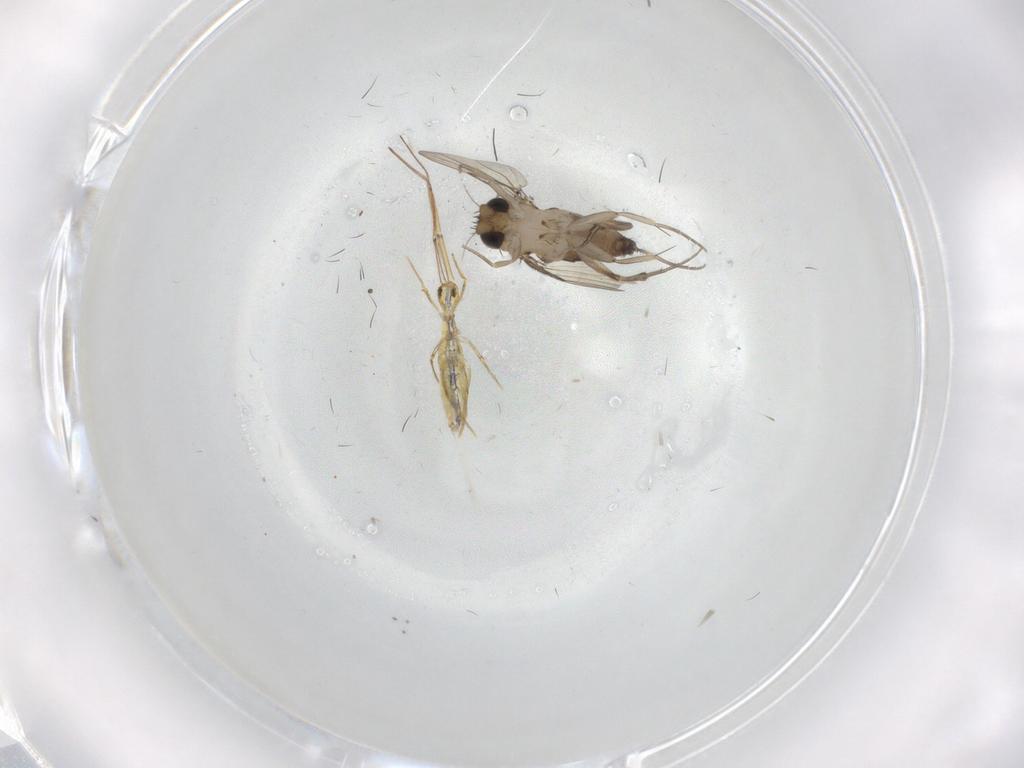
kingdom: Animalia
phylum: Arthropoda
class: Insecta
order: Diptera
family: Phoridae
